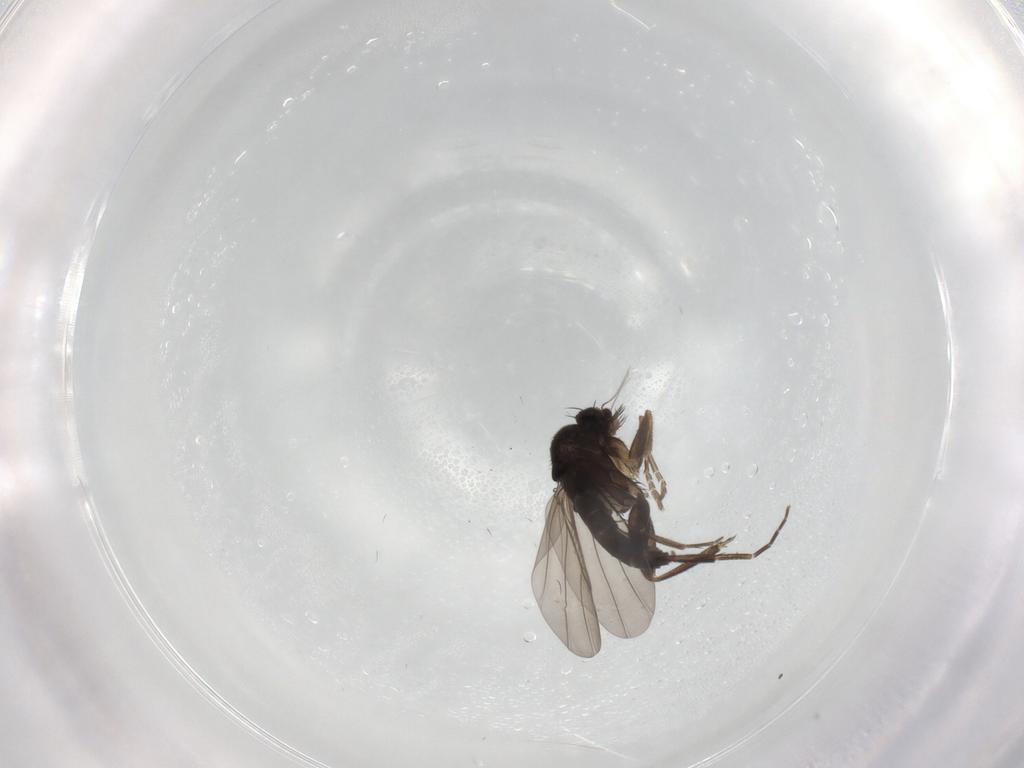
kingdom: Animalia
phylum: Arthropoda
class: Insecta
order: Diptera
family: Phoridae
